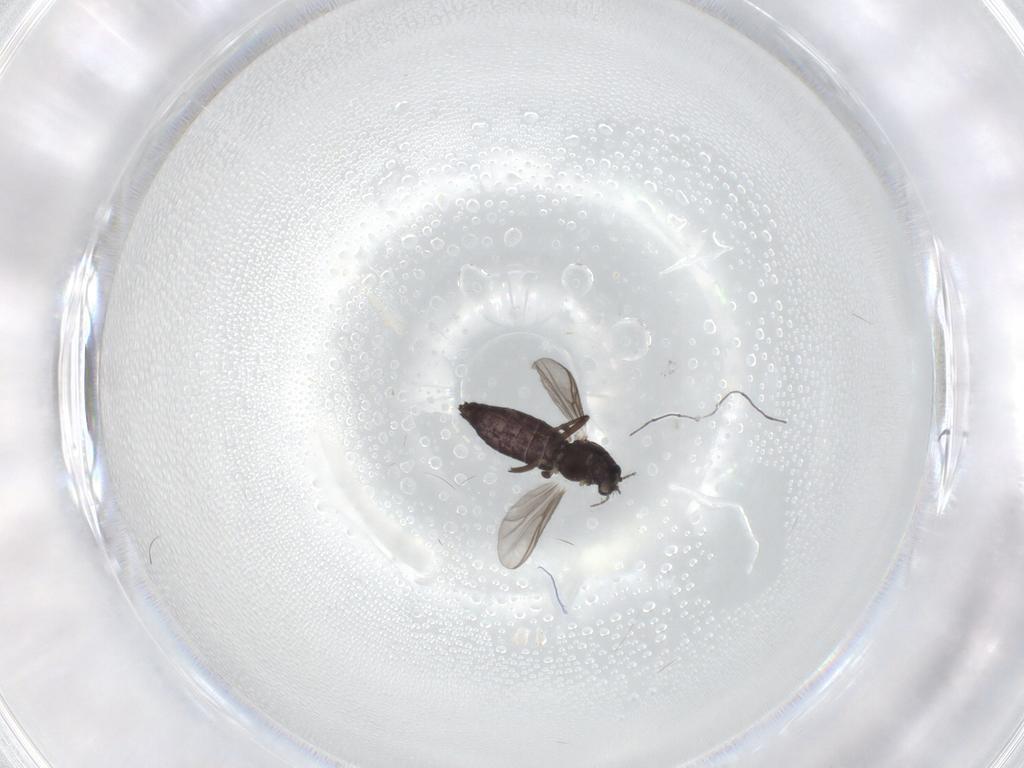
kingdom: Animalia
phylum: Arthropoda
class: Insecta
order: Diptera
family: Chironomidae
